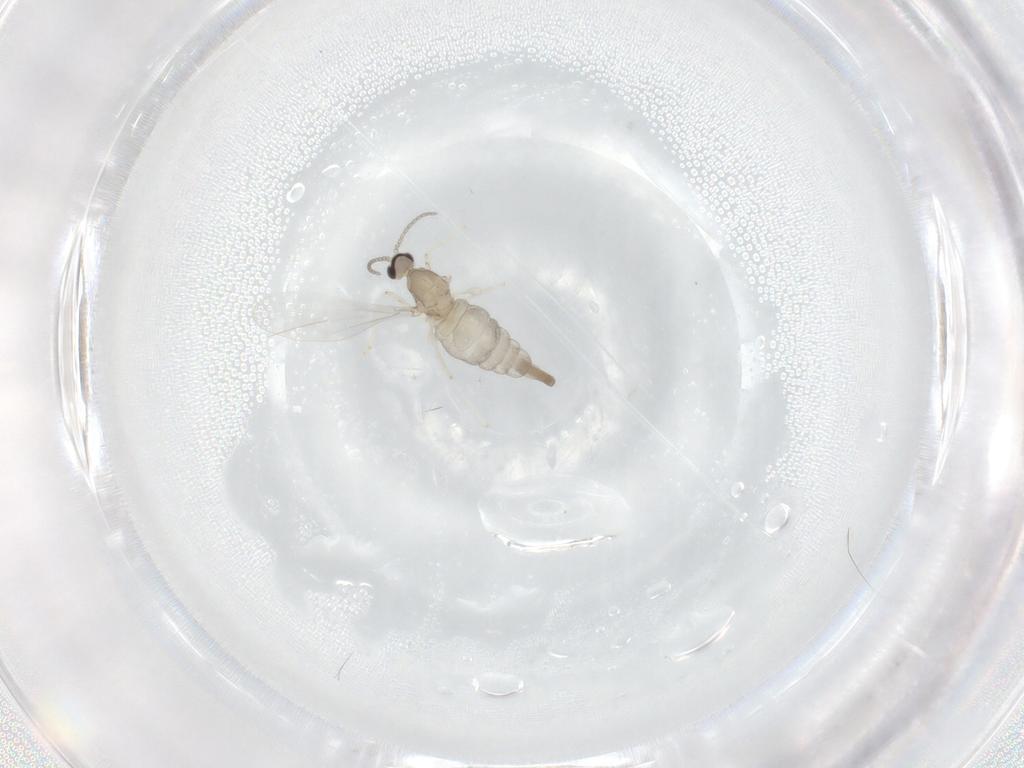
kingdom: Animalia
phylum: Arthropoda
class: Insecta
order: Diptera
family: Cecidomyiidae
